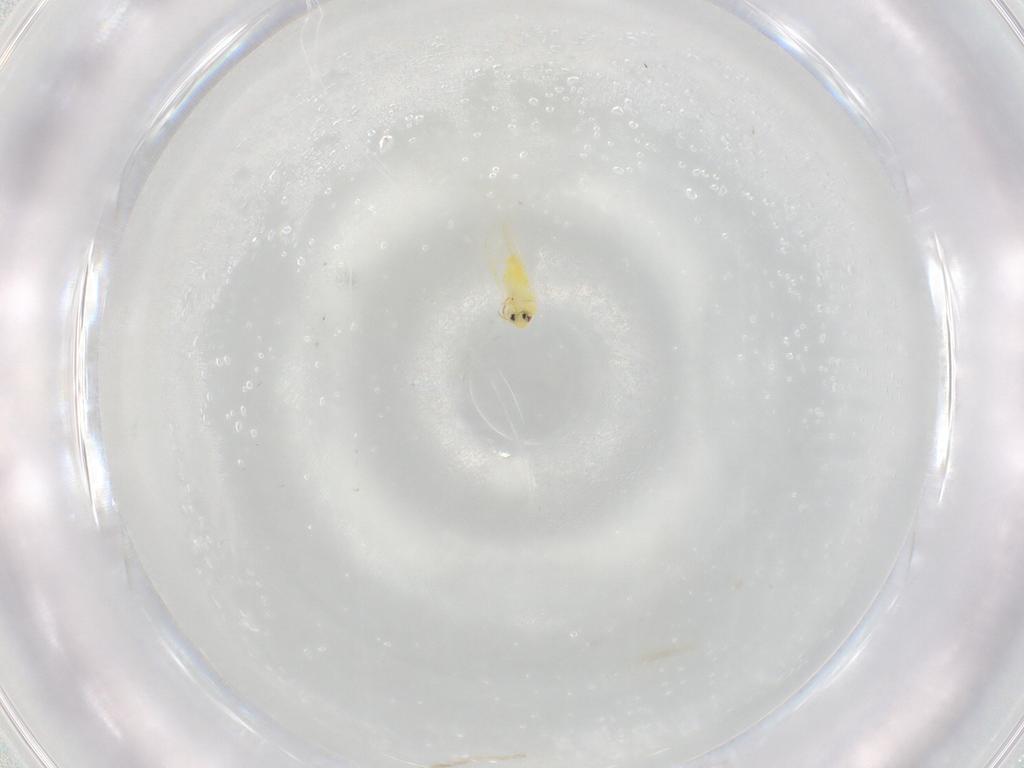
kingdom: Animalia
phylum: Arthropoda
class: Insecta
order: Hemiptera
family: Aleyrodidae
